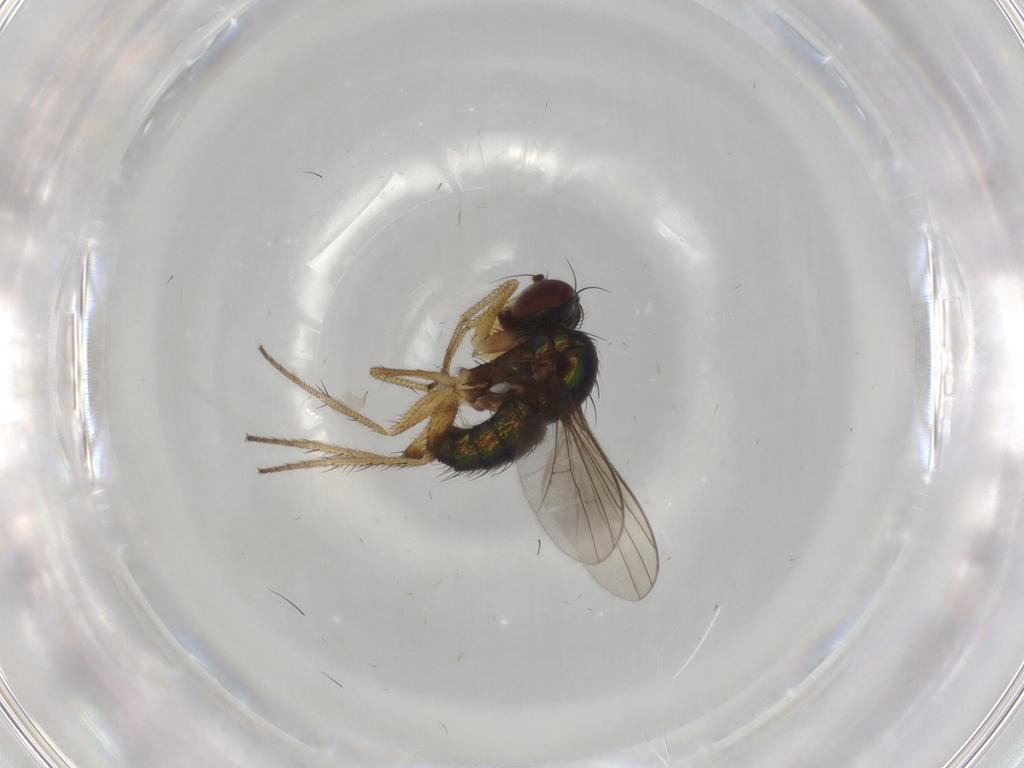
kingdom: Animalia
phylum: Arthropoda
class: Insecta
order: Diptera
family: Dolichopodidae
